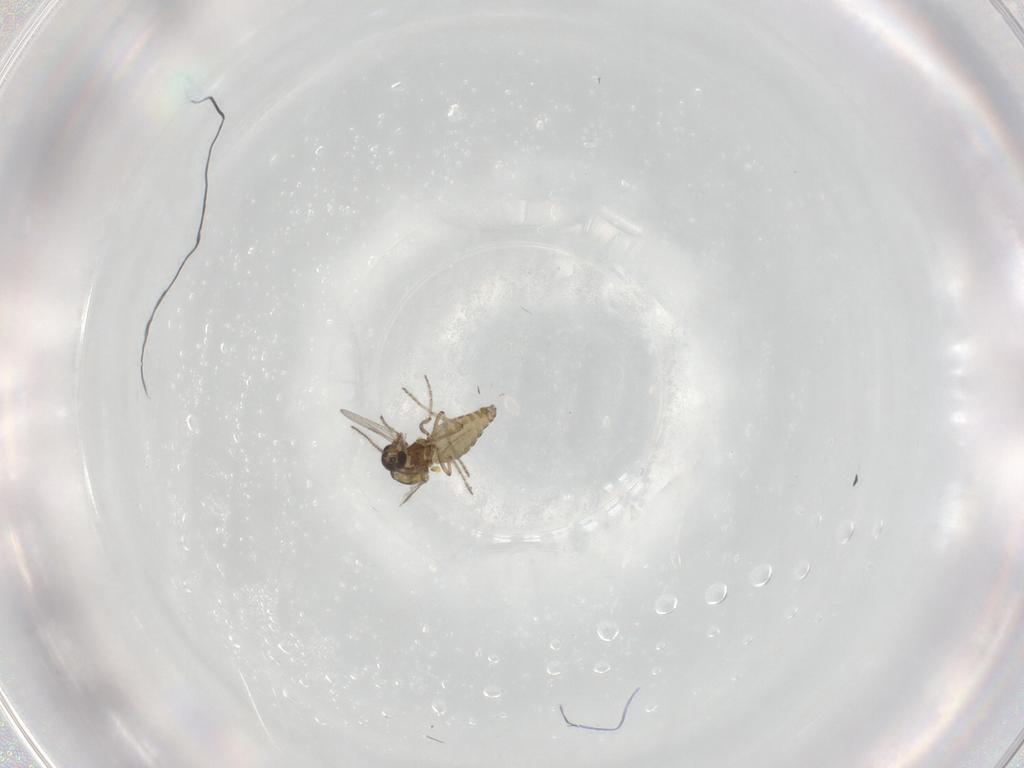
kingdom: Animalia
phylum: Arthropoda
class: Insecta
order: Diptera
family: Ceratopogonidae
